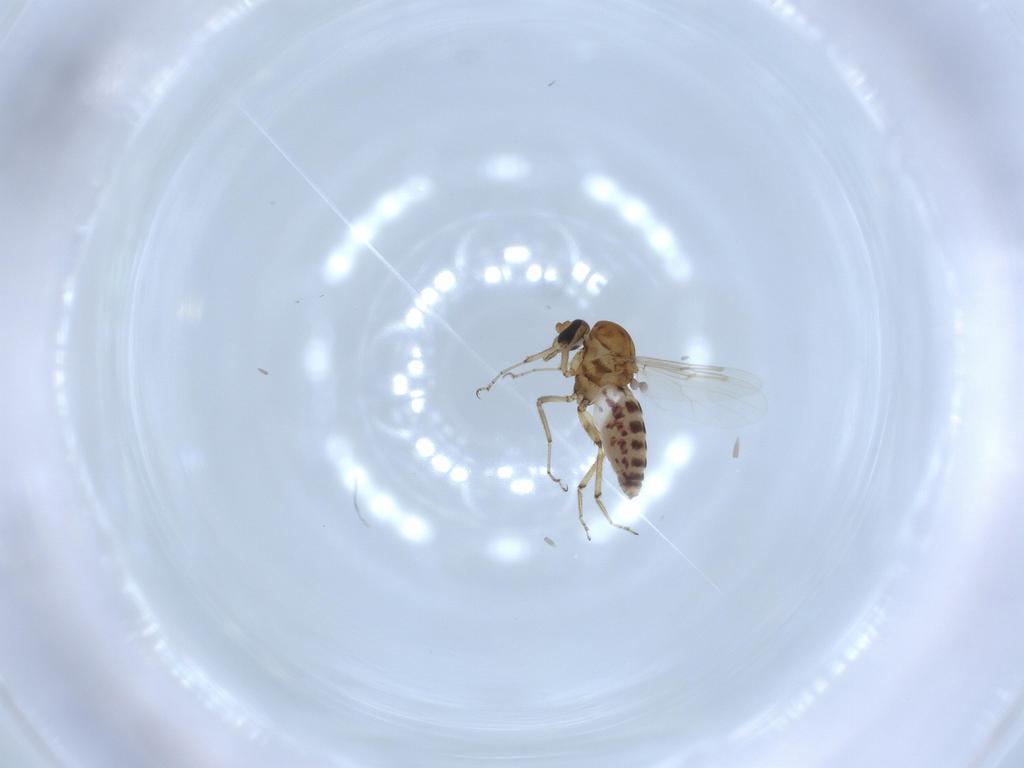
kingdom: Animalia
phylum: Arthropoda
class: Insecta
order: Diptera
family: Ceratopogonidae
